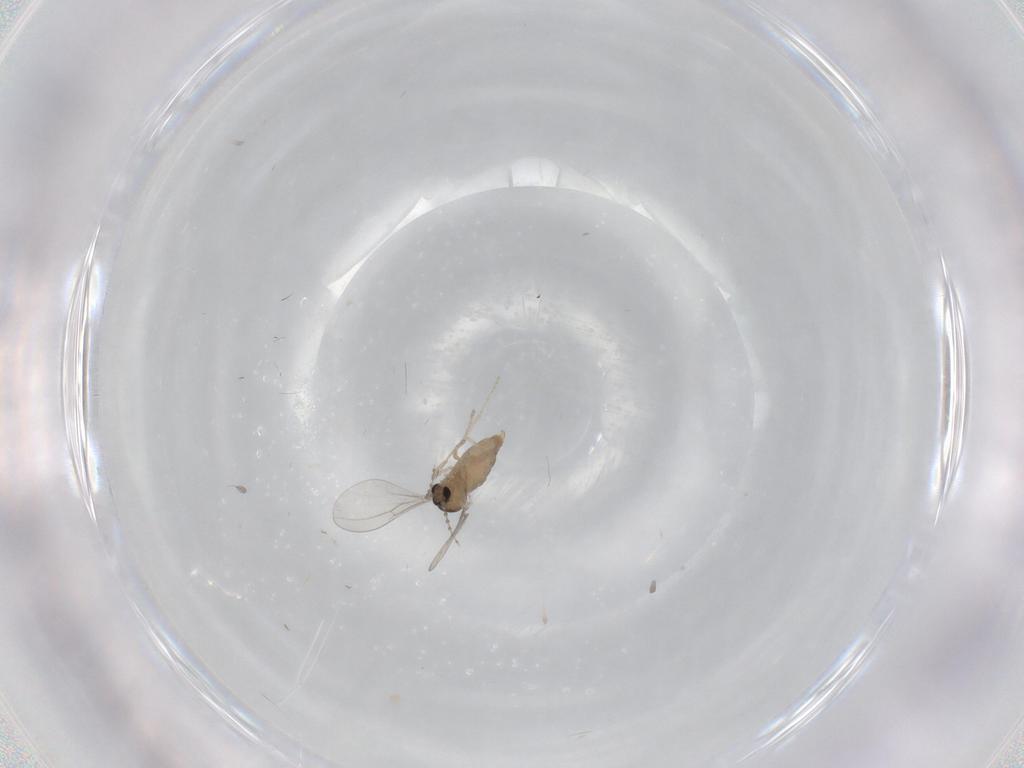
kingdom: Animalia
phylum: Arthropoda
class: Insecta
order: Diptera
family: Cecidomyiidae
